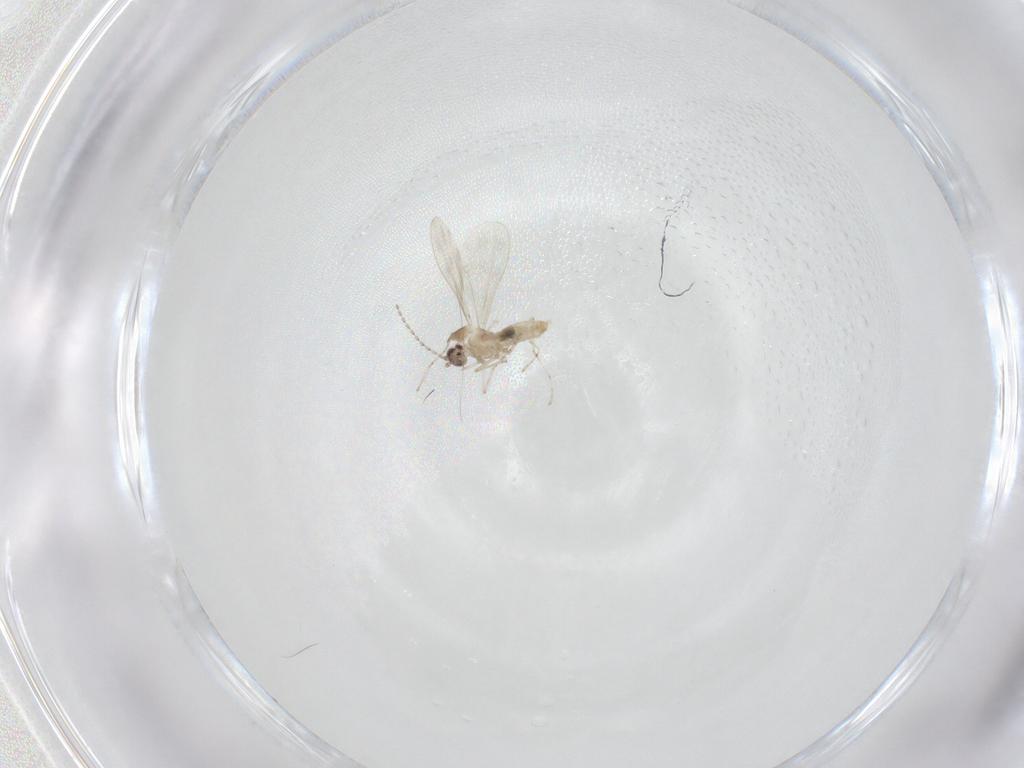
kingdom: Animalia
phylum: Arthropoda
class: Insecta
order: Diptera
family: Cecidomyiidae
